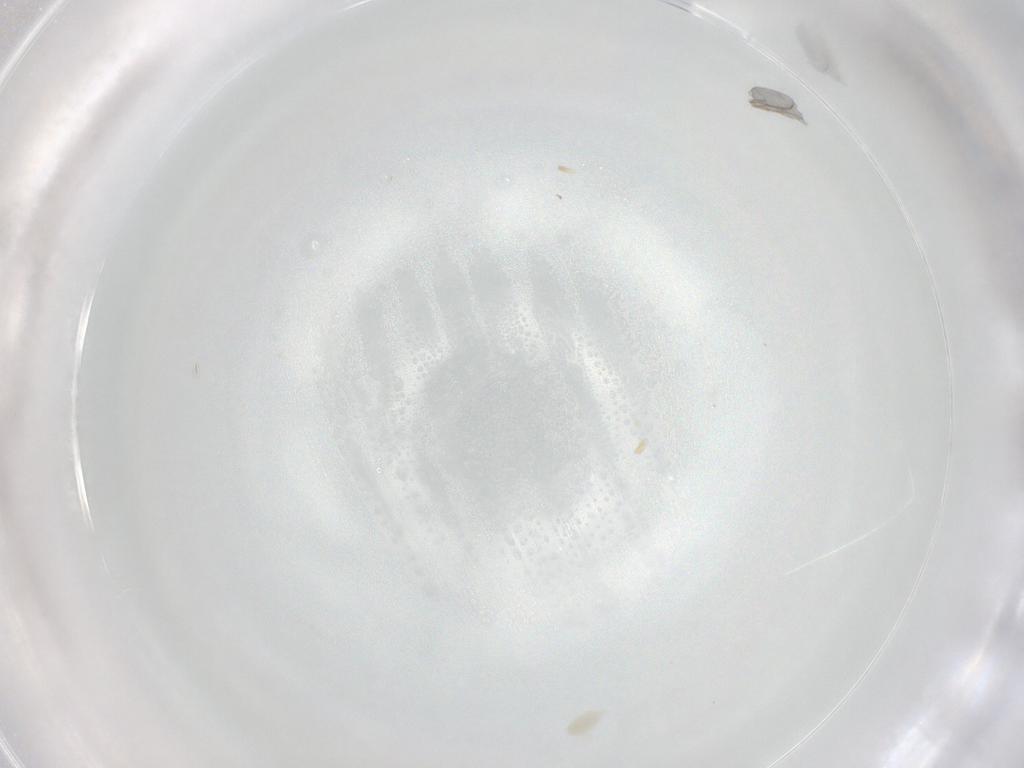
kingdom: Animalia
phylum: Arthropoda
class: Arachnida
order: Trombidiformes
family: Eupodidae
